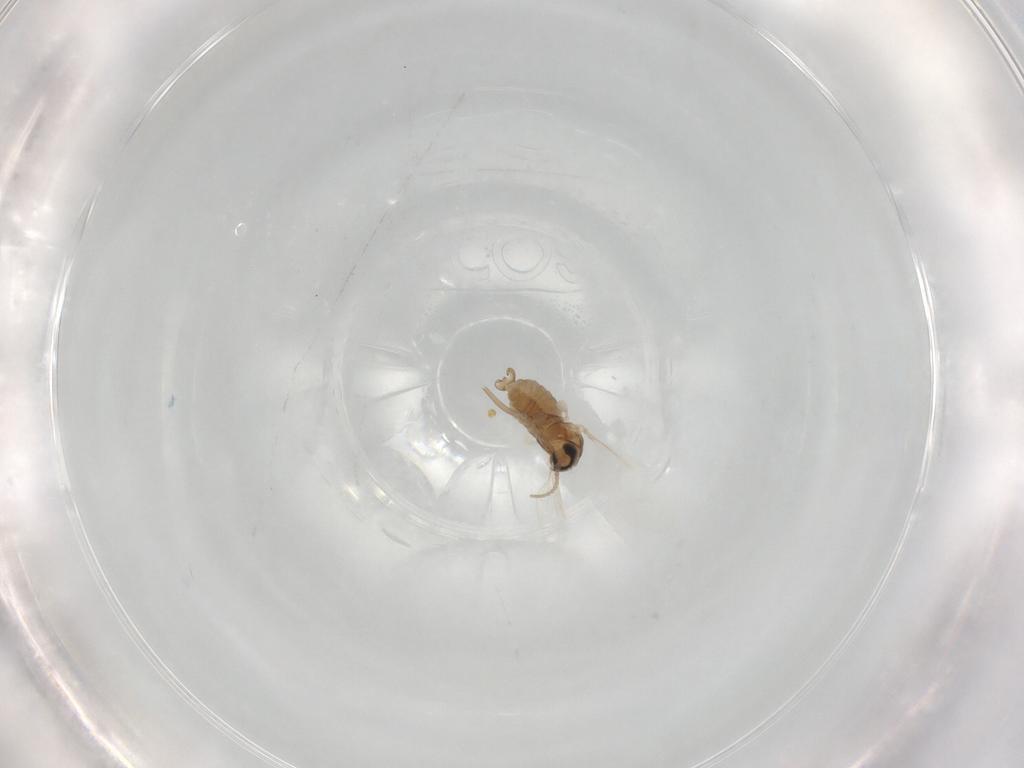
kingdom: Animalia
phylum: Arthropoda
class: Insecta
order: Diptera
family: Cecidomyiidae
